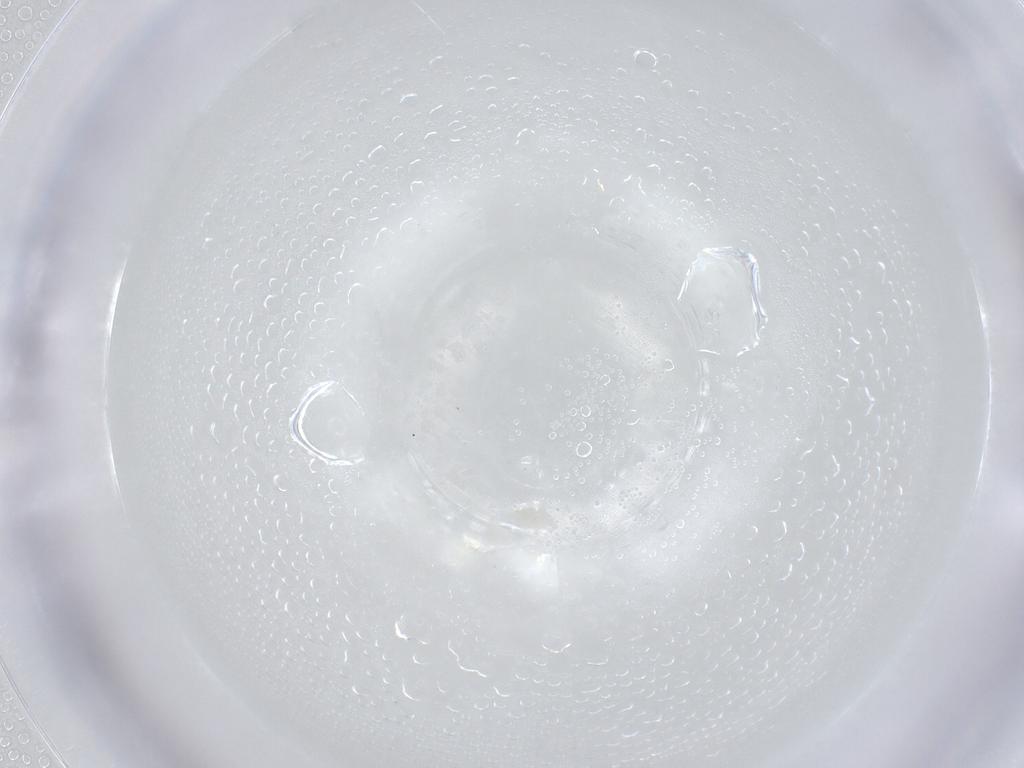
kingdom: Animalia
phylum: Arthropoda
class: Arachnida
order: Trombidiformes
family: Eupodidae
